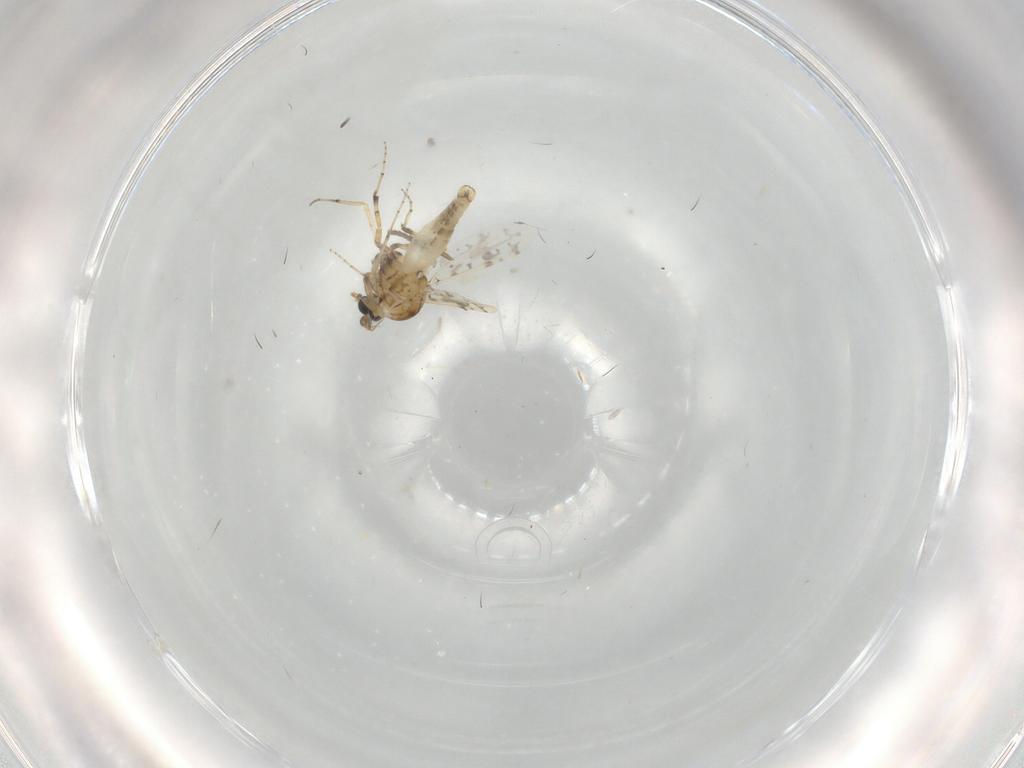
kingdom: Animalia
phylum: Arthropoda
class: Insecta
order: Diptera
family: Ceratopogonidae
